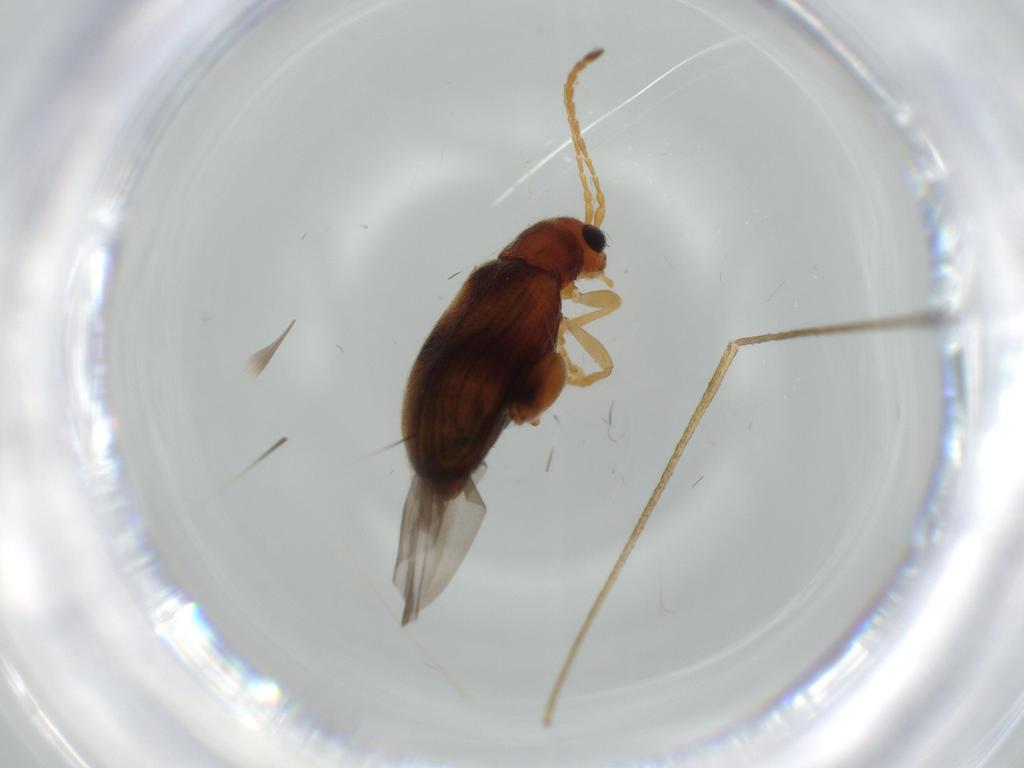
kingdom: Animalia
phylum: Arthropoda
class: Insecta
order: Coleoptera
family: Chrysomelidae
